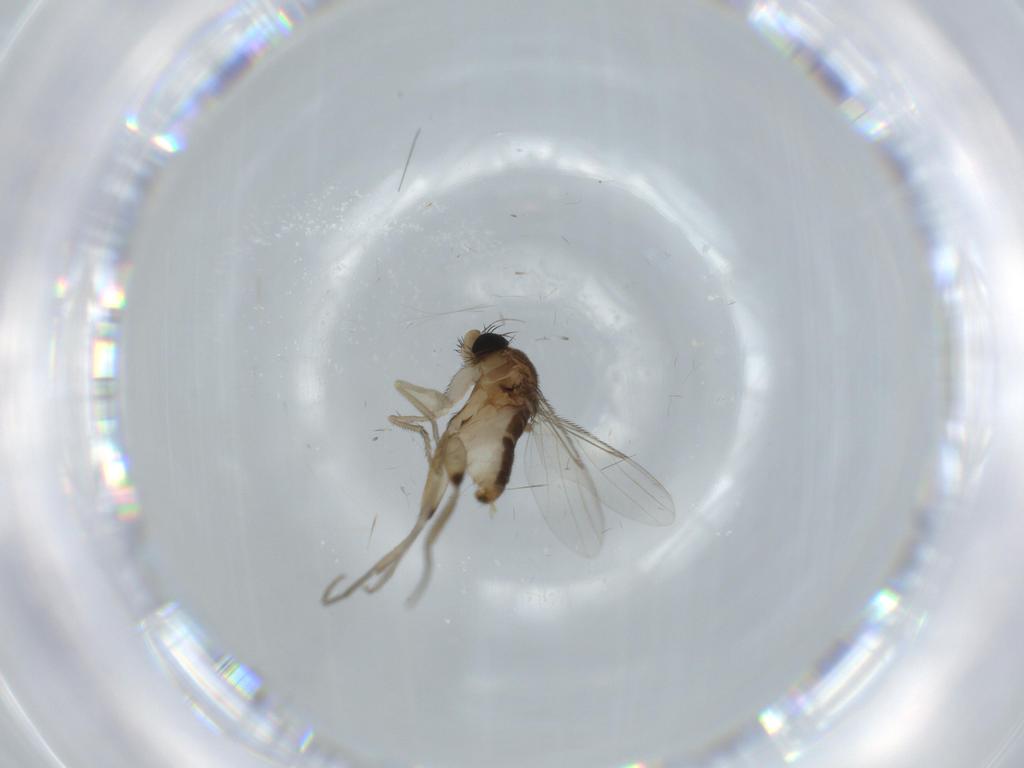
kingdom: Animalia
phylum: Arthropoda
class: Insecta
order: Diptera
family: Phoridae
